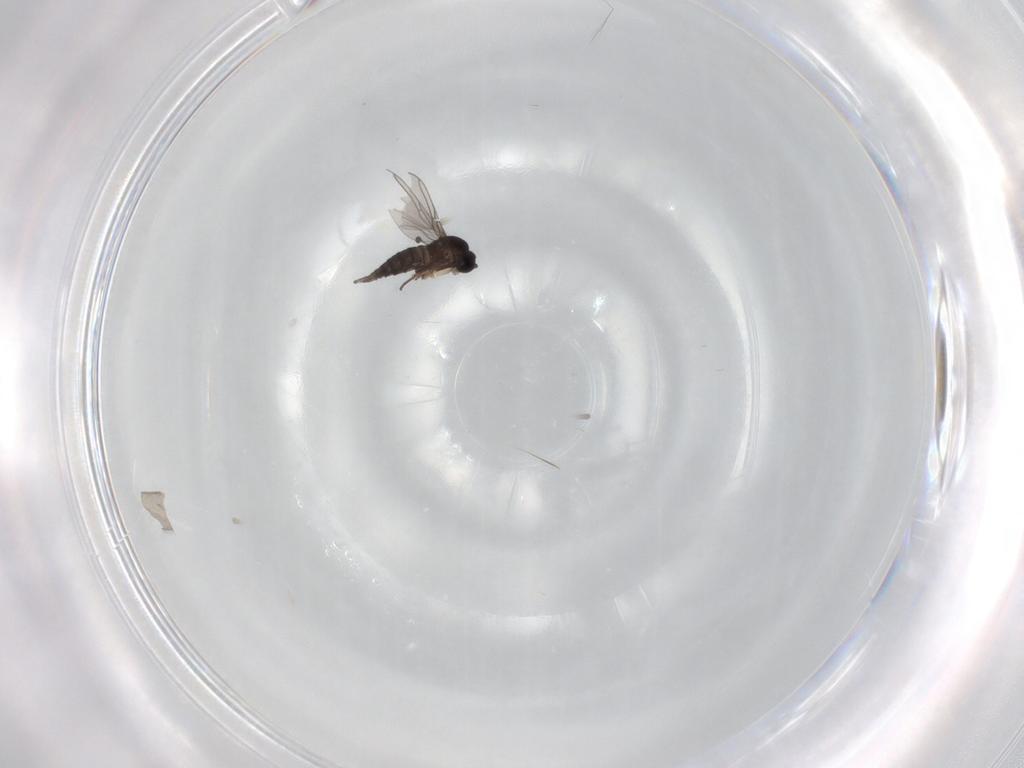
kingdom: Animalia
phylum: Arthropoda
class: Insecta
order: Diptera
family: Sciaridae
